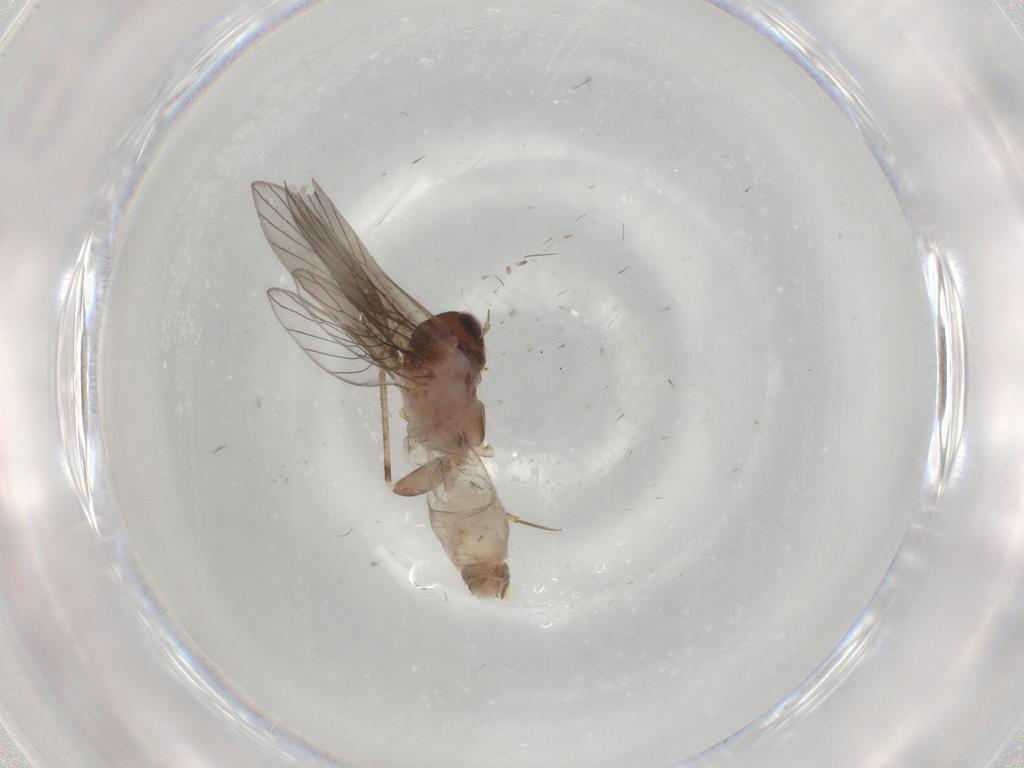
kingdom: Animalia
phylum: Arthropoda
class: Insecta
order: Psocodea
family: Lepidopsocidae
